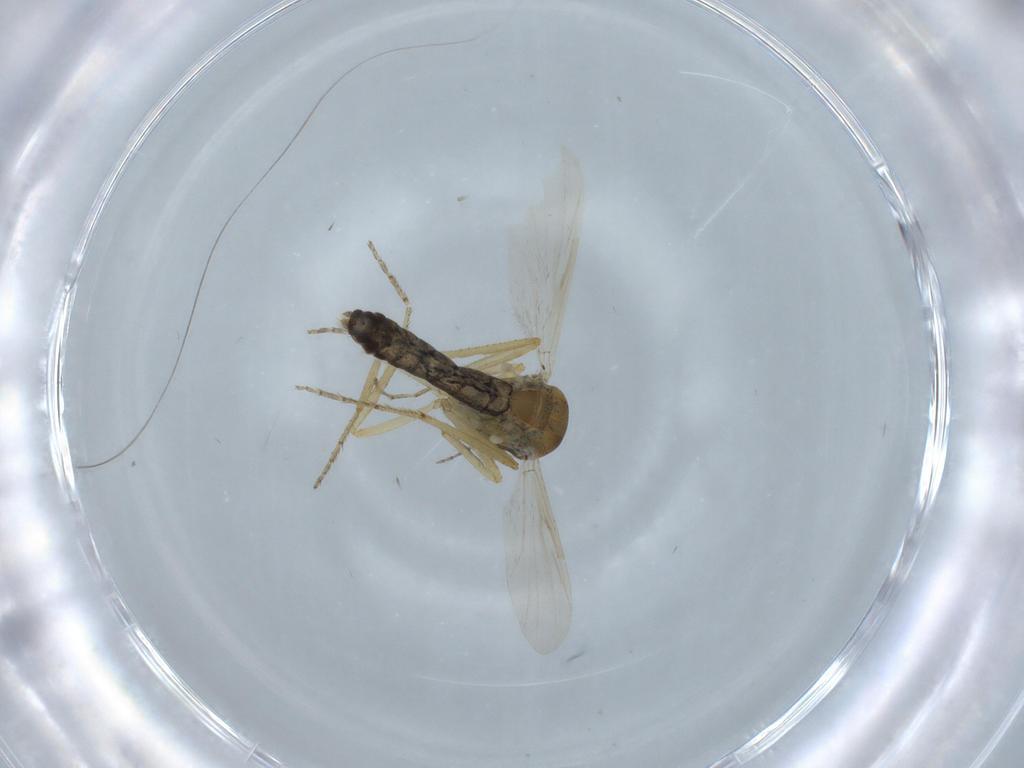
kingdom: Animalia
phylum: Arthropoda
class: Insecta
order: Diptera
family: Ceratopogonidae
